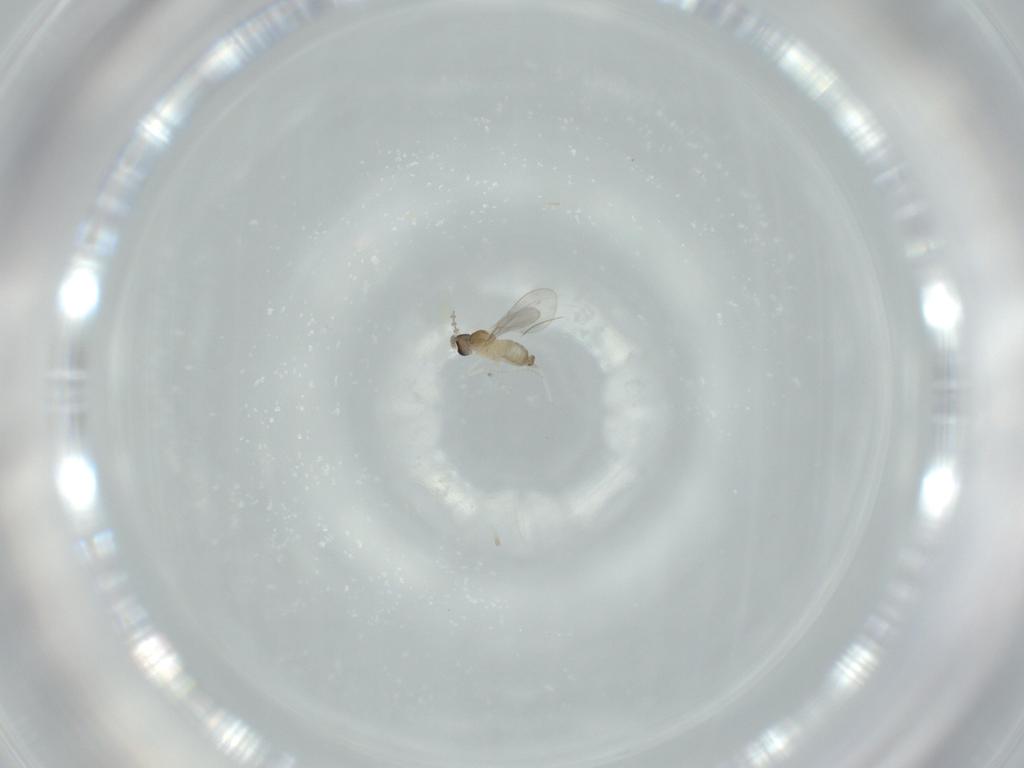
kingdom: Animalia
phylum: Arthropoda
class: Insecta
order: Diptera
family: Cecidomyiidae
